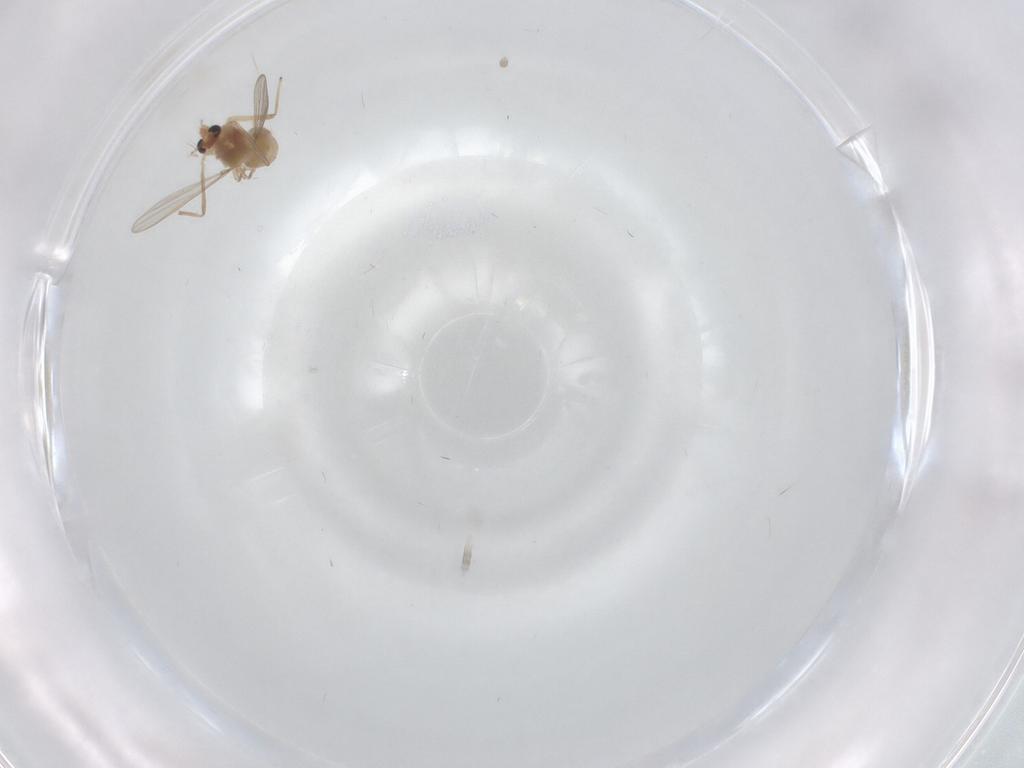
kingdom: Animalia
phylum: Arthropoda
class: Insecta
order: Diptera
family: Chironomidae
